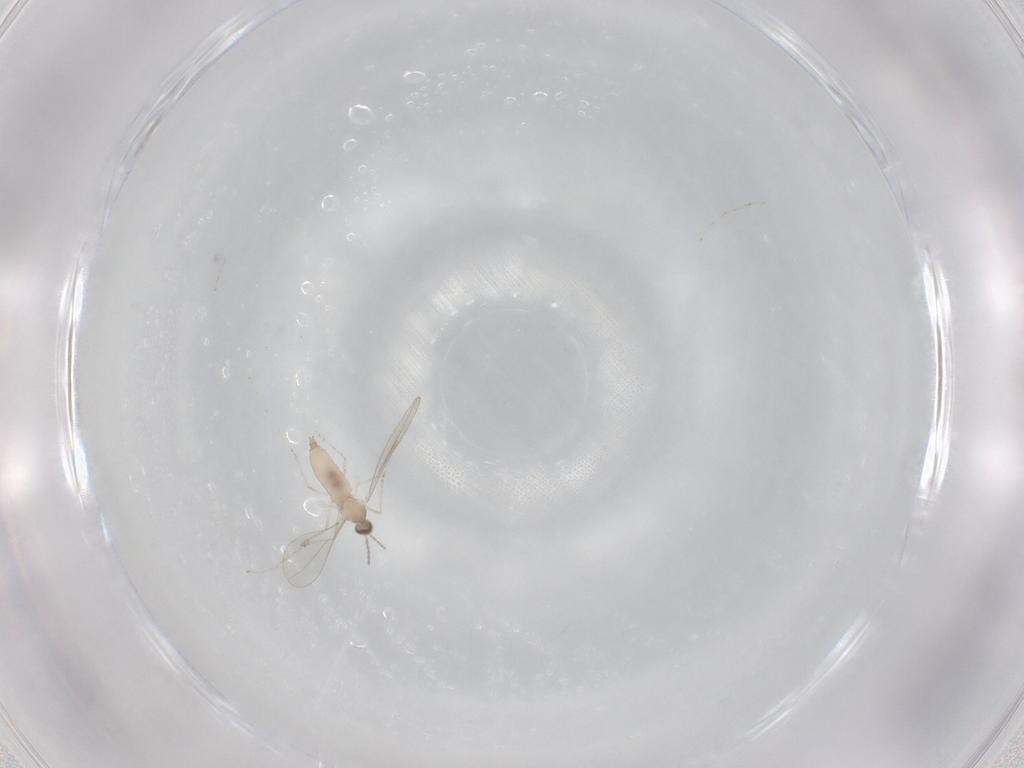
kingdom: Animalia
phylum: Arthropoda
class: Insecta
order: Diptera
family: Cecidomyiidae
